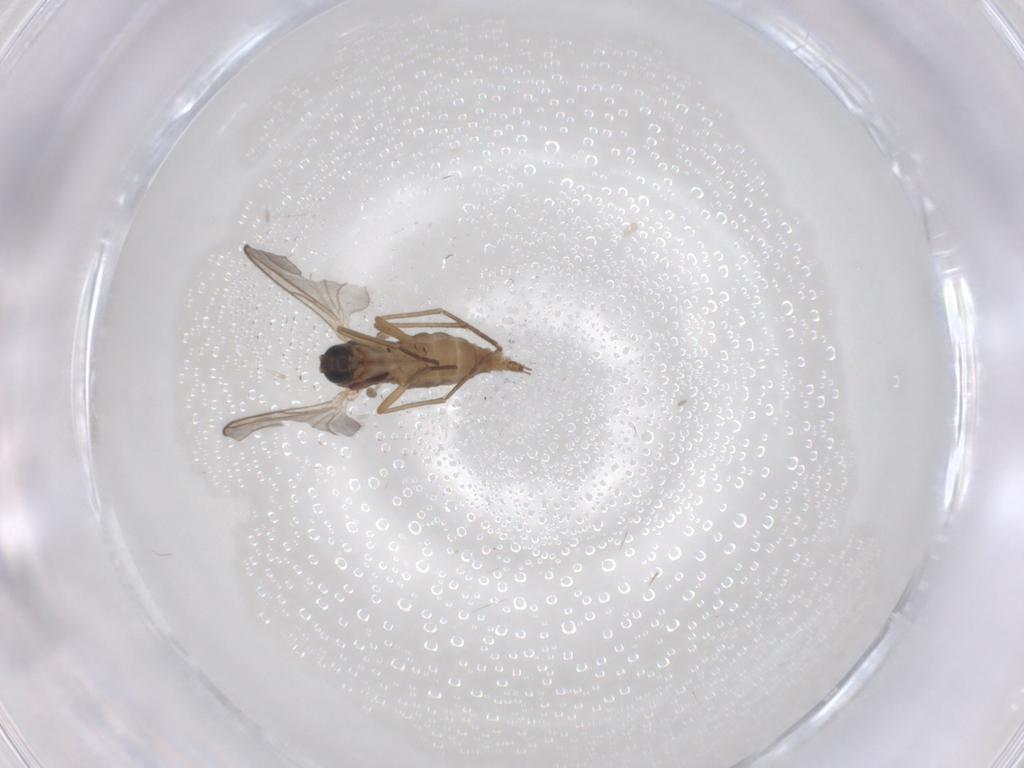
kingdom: Animalia
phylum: Arthropoda
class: Insecta
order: Diptera
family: Sciaridae
